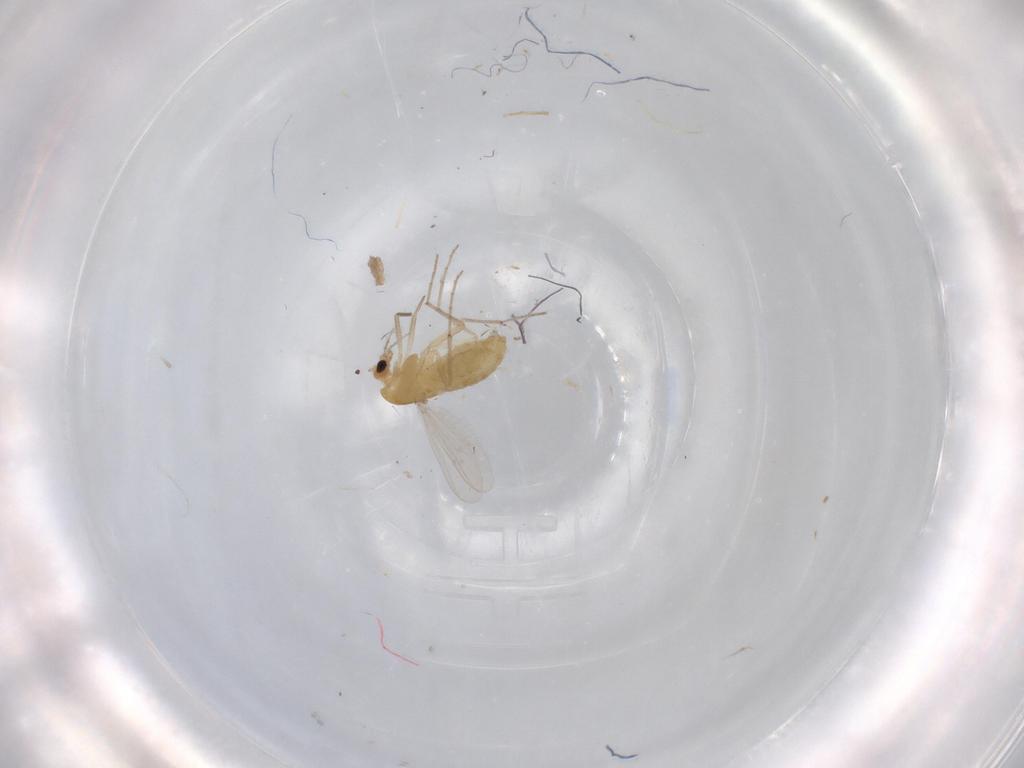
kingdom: Animalia
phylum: Arthropoda
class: Insecta
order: Diptera
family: Chironomidae
